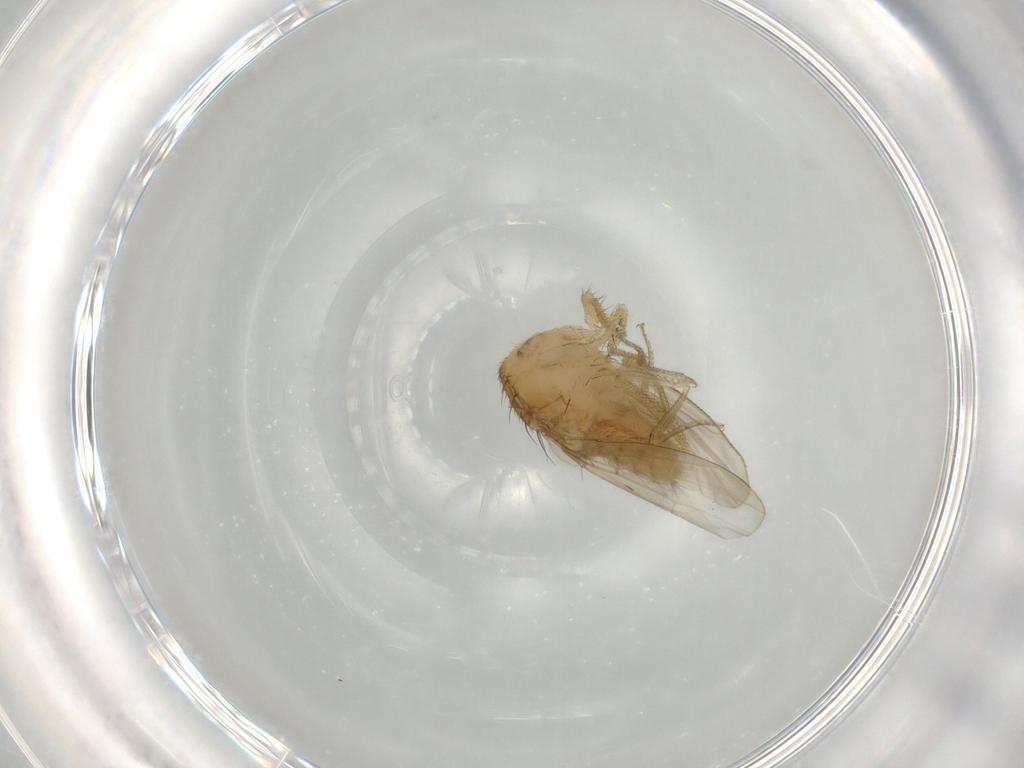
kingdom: Animalia
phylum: Arthropoda
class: Insecta
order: Diptera
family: Drosophilidae
